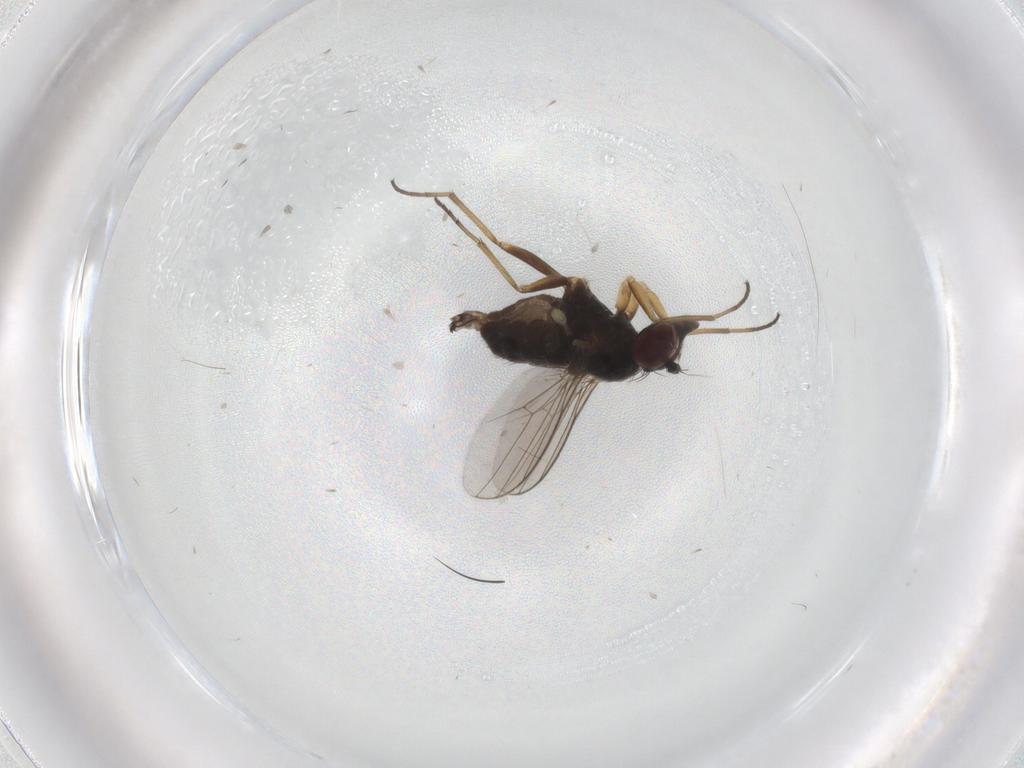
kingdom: Animalia
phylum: Arthropoda
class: Insecta
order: Diptera
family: Dolichopodidae
